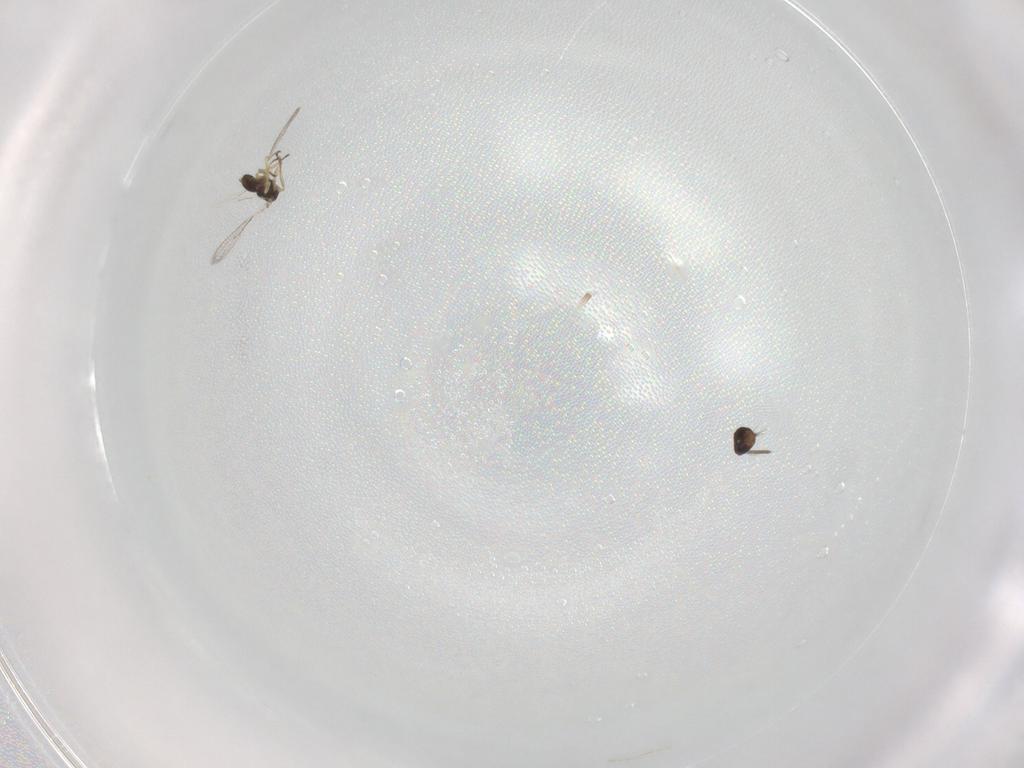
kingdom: Animalia
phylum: Arthropoda
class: Insecta
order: Hymenoptera
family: Eulophidae
